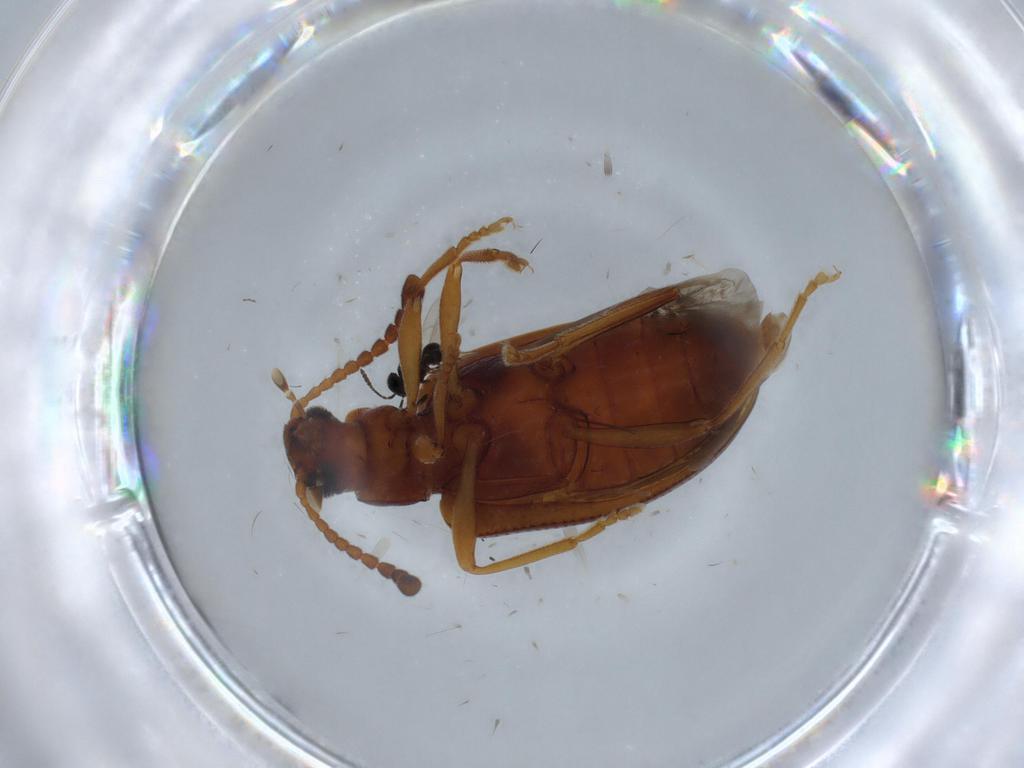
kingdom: Animalia
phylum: Arthropoda
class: Insecta
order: Coleoptera
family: Tenebrionidae
